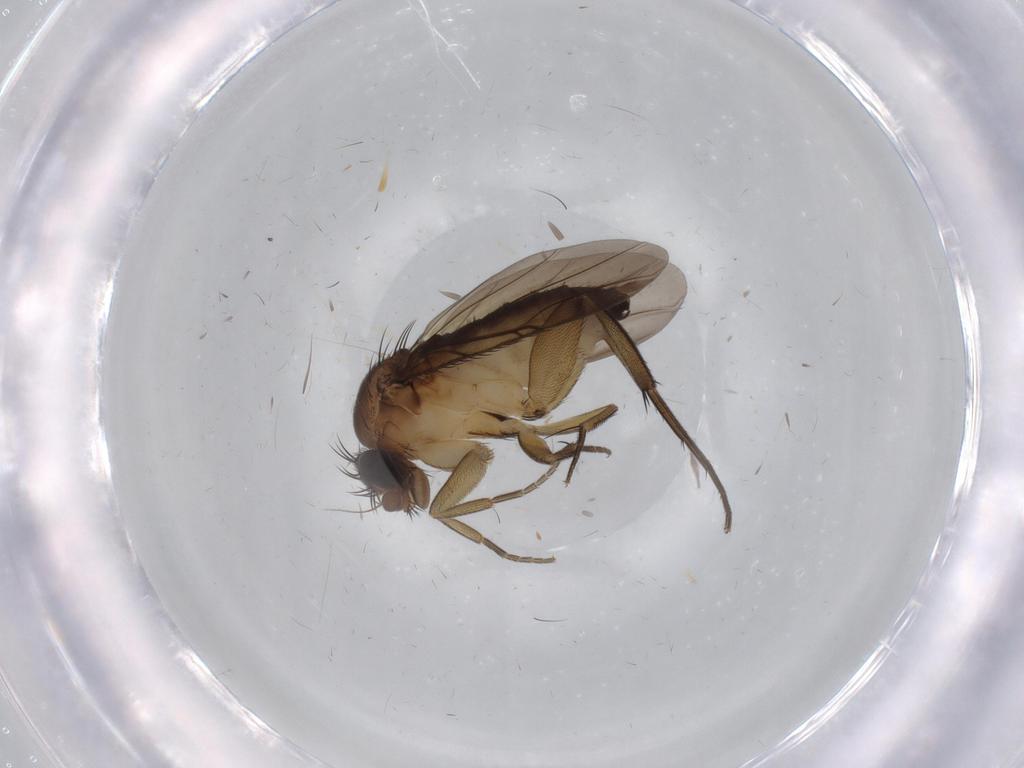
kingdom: Animalia
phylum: Arthropoda
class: Insecta
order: Diptera
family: Phoridae
